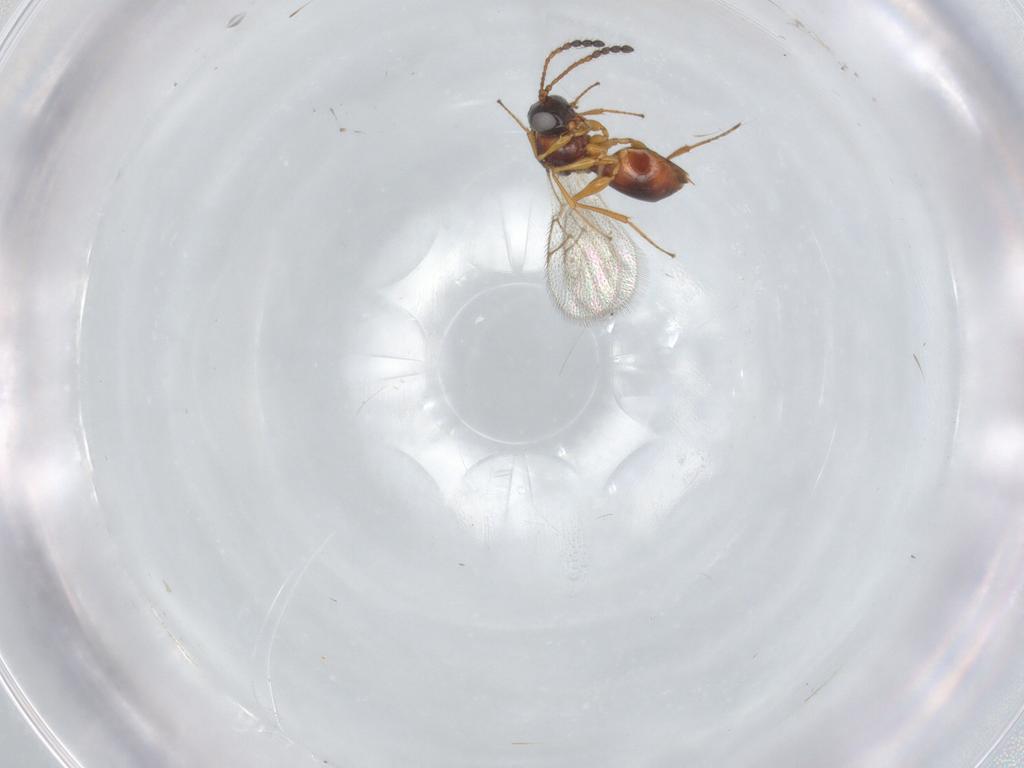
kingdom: Animalia
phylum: Arthropoda
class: Insecta
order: Hymenoptera
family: Figitidae
